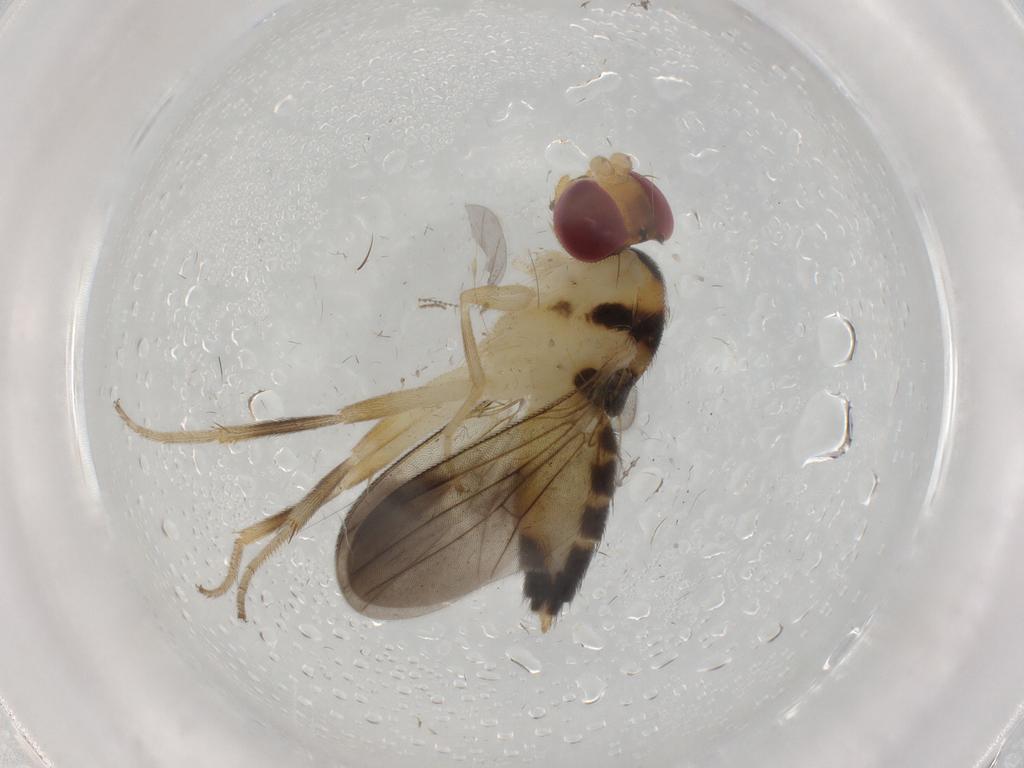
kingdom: Animalia
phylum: Arthropoda
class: Insecta
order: Diptera
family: Clusiidae
